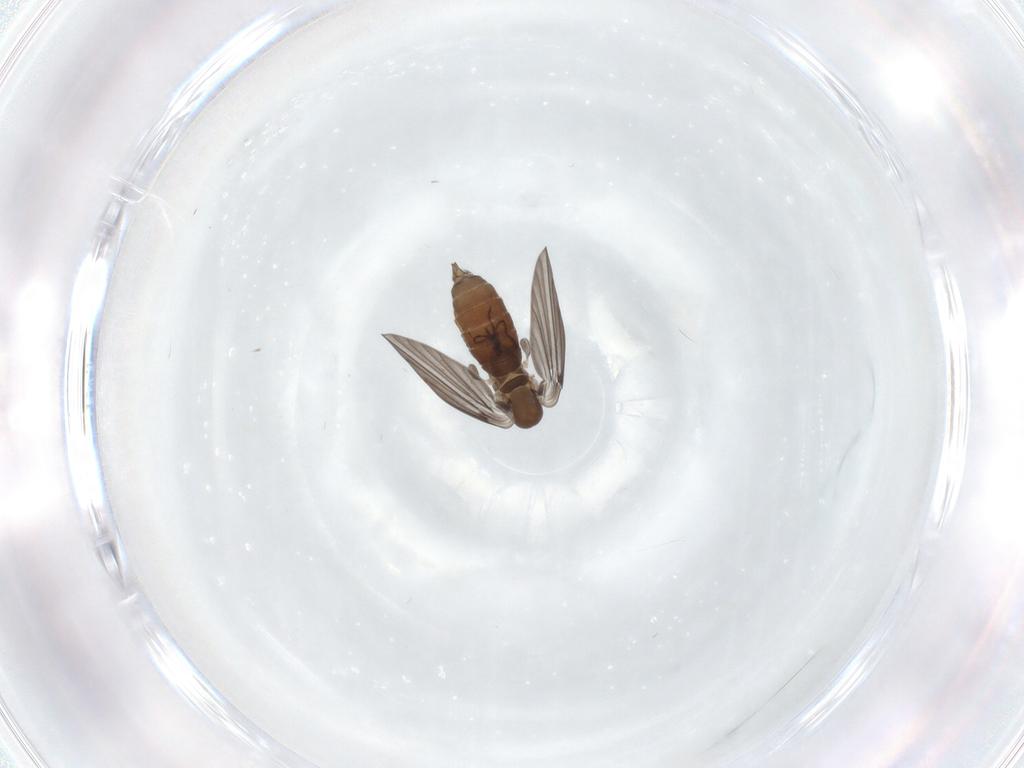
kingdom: Animalia
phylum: Arthropoda
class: Insecta
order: Diptera
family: Psychodidae
